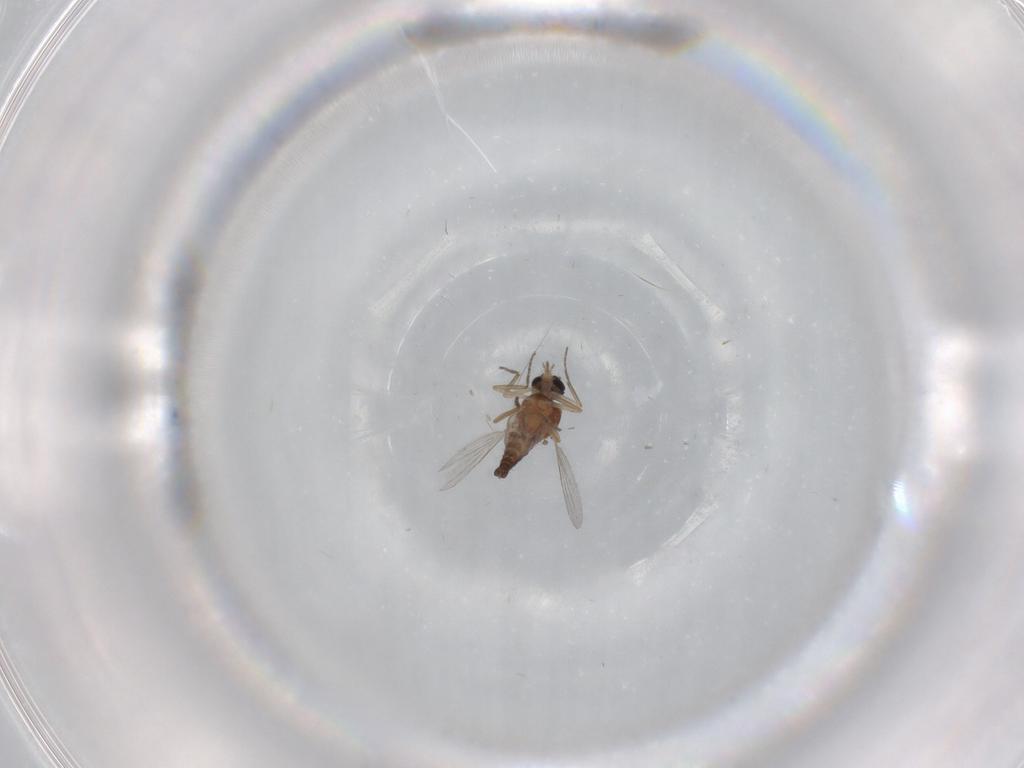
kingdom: Animalia
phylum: Arthropoda
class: Insecta
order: Diptera
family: Ceratopogonidae
